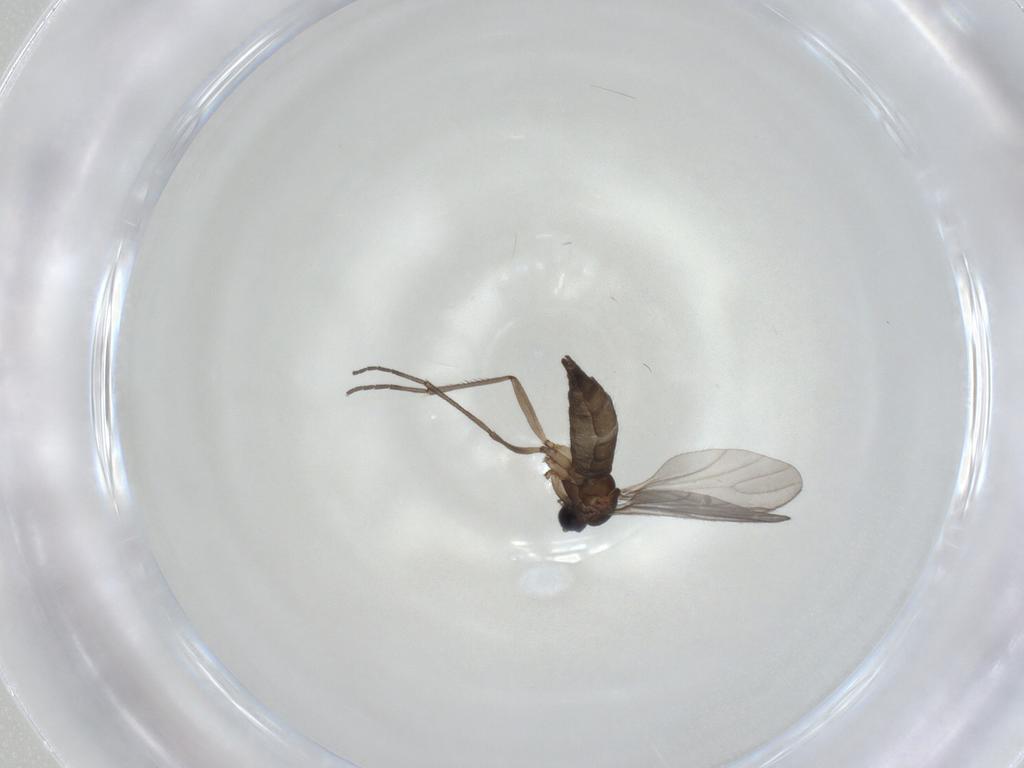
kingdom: Animalia
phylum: Arthropoda
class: Insecta
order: Diptera
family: Sciaridae
